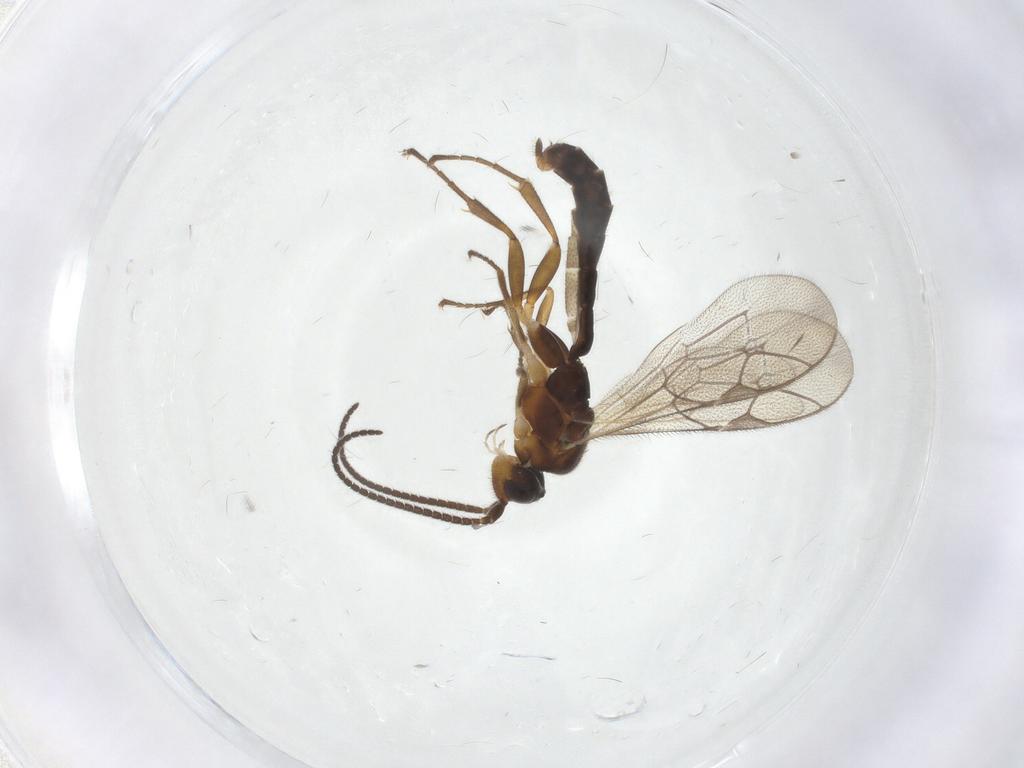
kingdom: Animalia
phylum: Arthropoda
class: Insecta
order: Hymenoptera
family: Ichneumonidae
